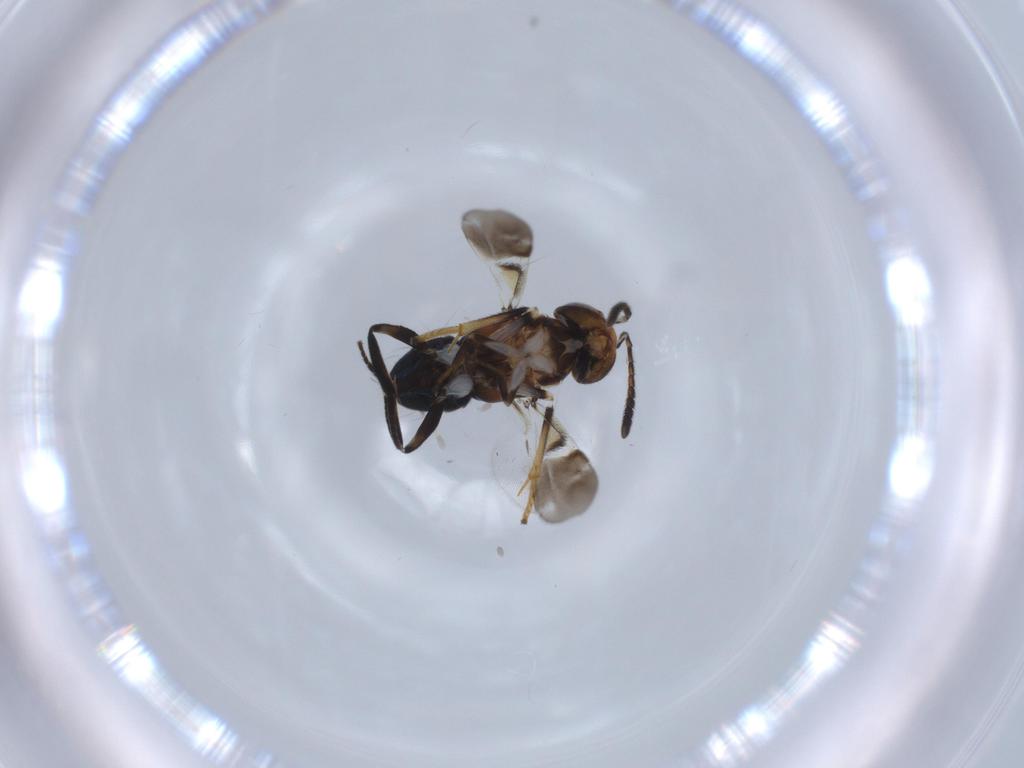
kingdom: Animalia
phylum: Arthropoda
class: Insecta
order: Hymenoptera
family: Encyrtidae
